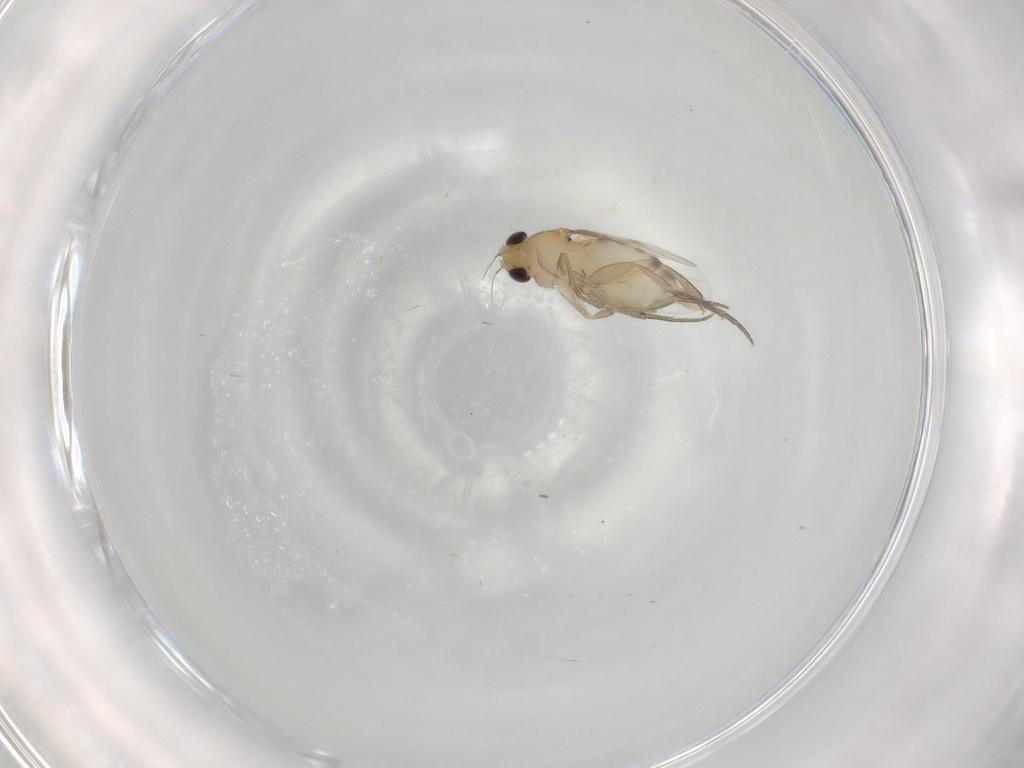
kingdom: Animalia
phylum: Arthropoda
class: Insecta
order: Diptera
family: Phoridae
